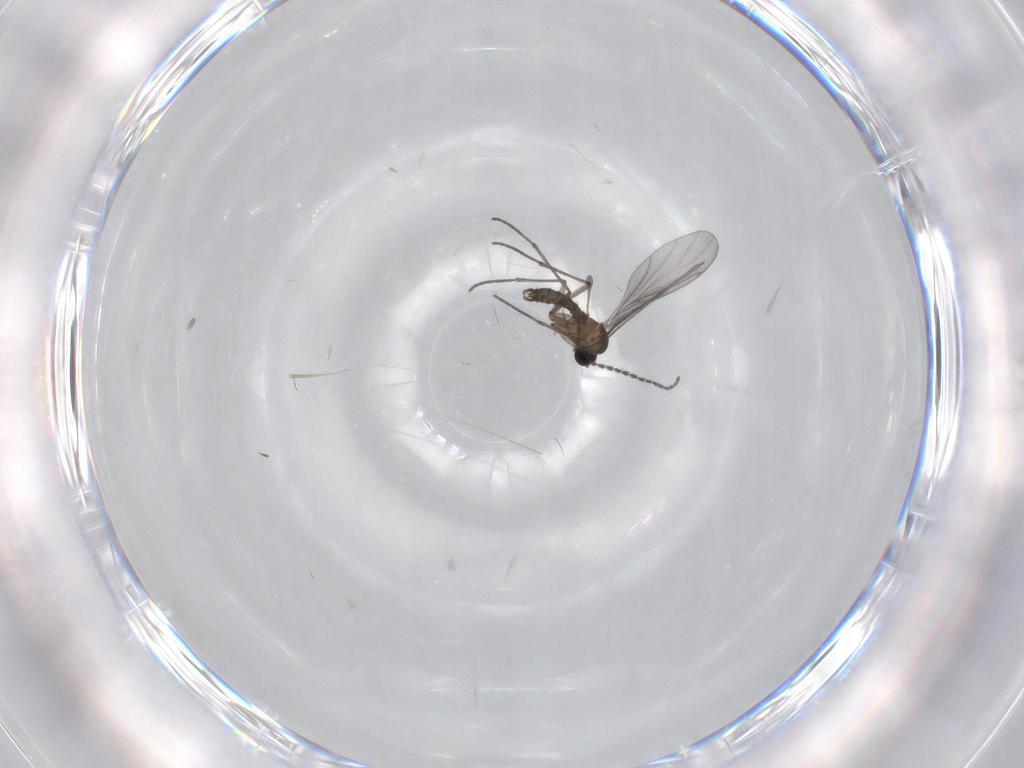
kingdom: Animalia
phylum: Arthropoda
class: Insecta
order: Diptera
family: Sciaridae
